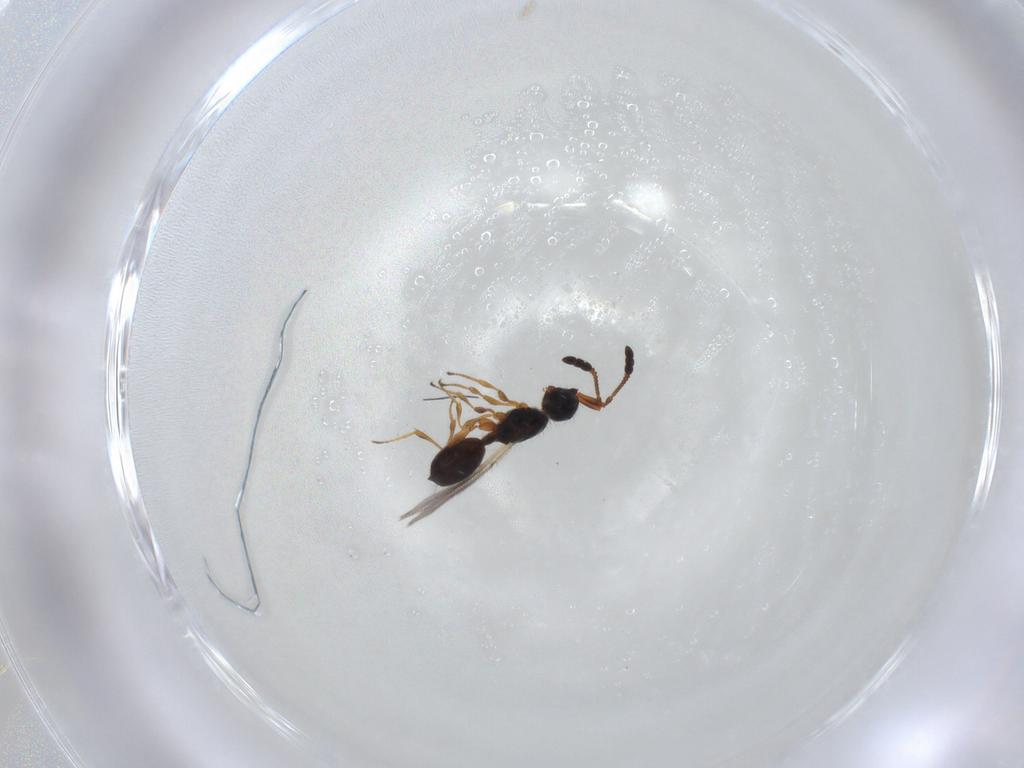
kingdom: Animalia
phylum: Arthropoda
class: Insecta
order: Hymenoptera
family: Diapriidae
